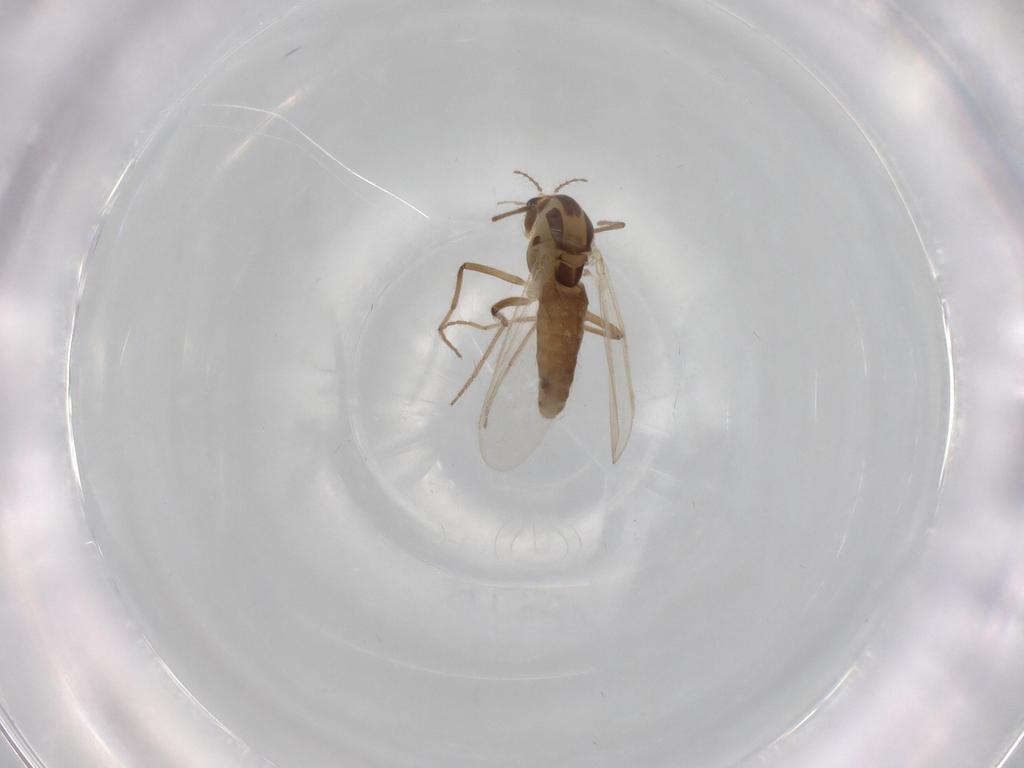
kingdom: Animalia
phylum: Arthropoda
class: Insecta
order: Diptera
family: Chironomidae
